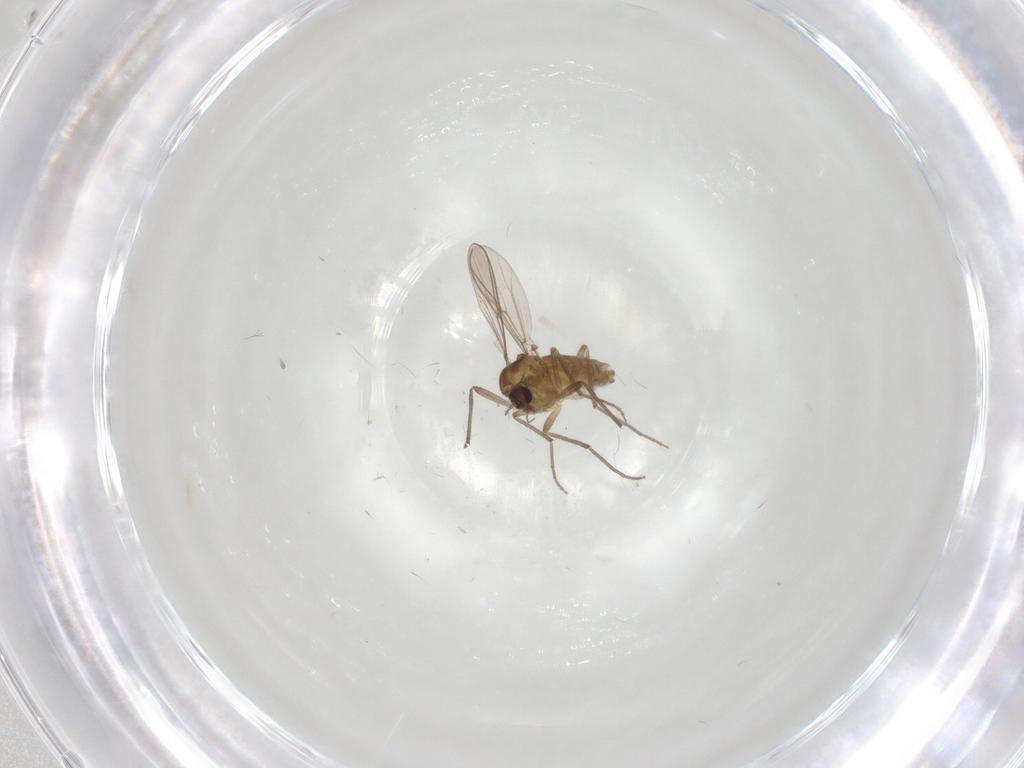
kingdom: Animalia
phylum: Arthropoda
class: Insecta
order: Diptera
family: Chironomidae
